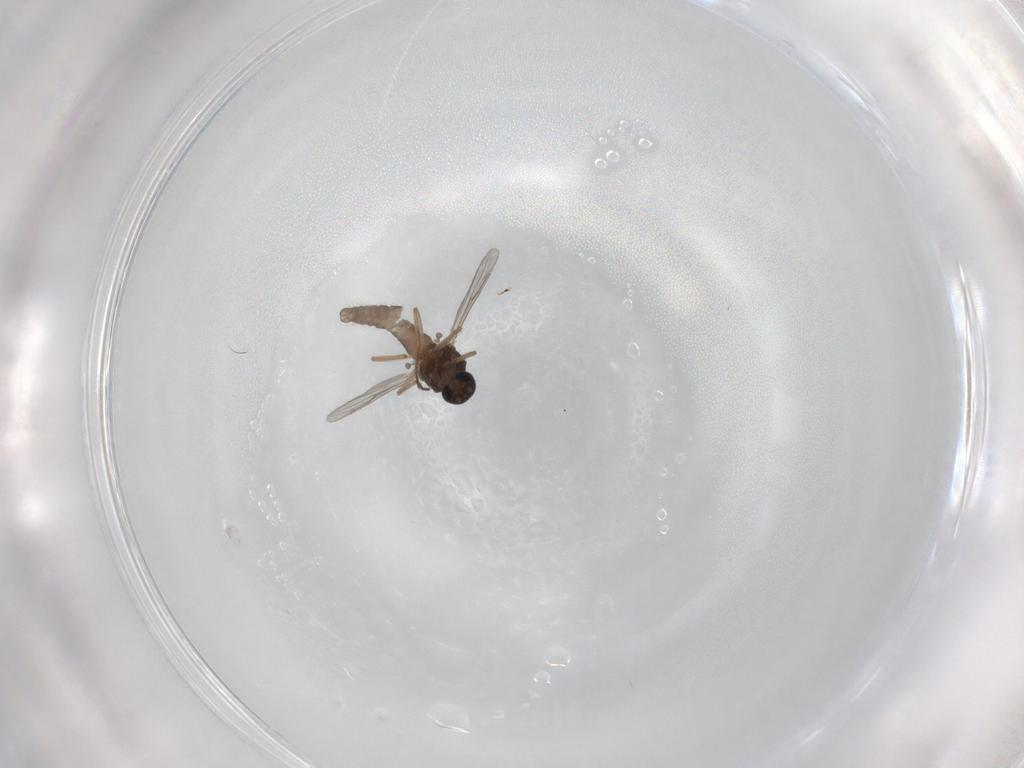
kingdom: Animalia
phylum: Arthropoda
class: Insecta
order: Diptera
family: Ceratopogonidae
